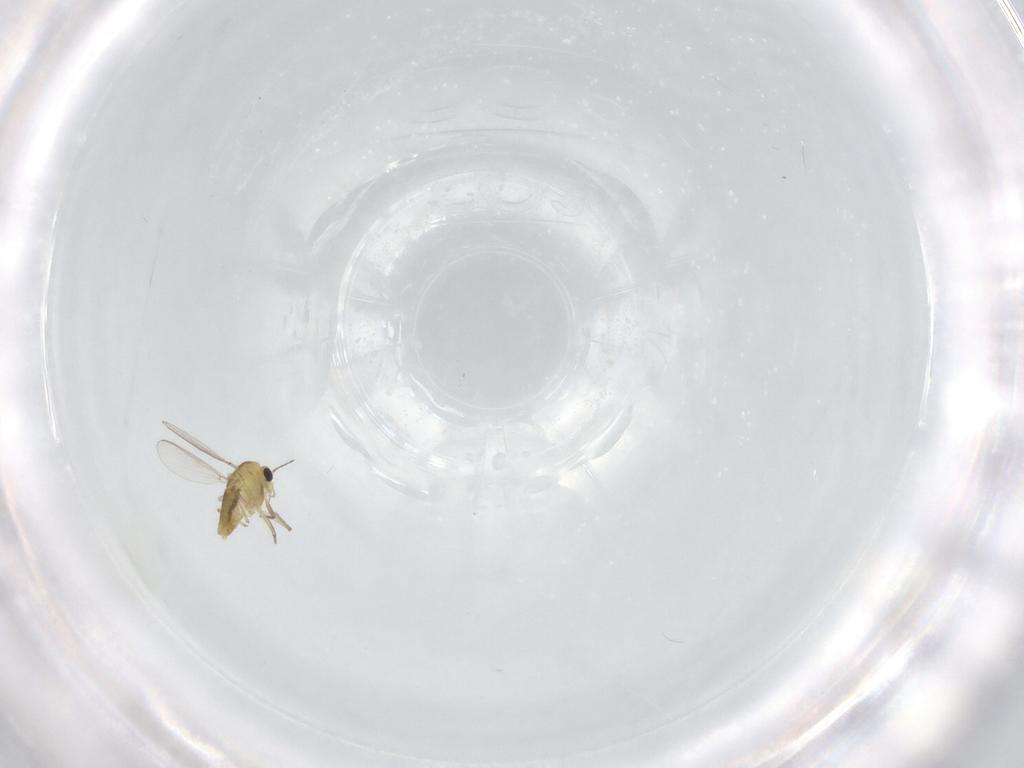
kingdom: Animalia
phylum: Arthropoda
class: Insecta
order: Diptera
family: Chironomidae
